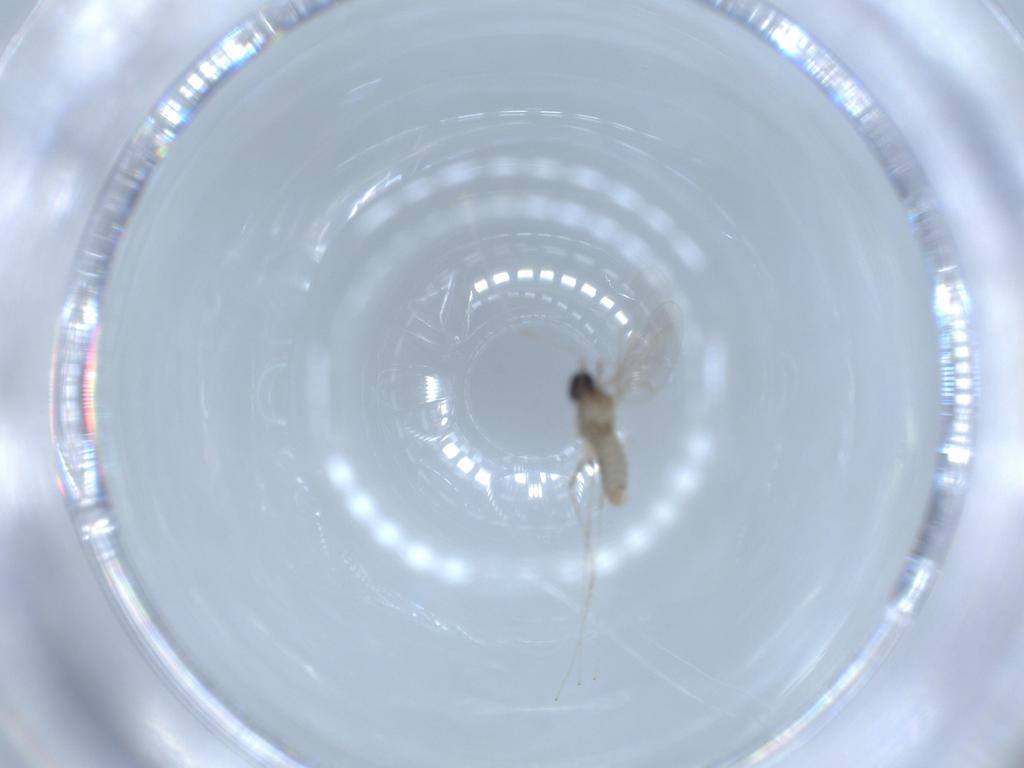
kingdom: Animalia
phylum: Arthropoda
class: Insecta
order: Diptera
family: Cecidomyiidae
